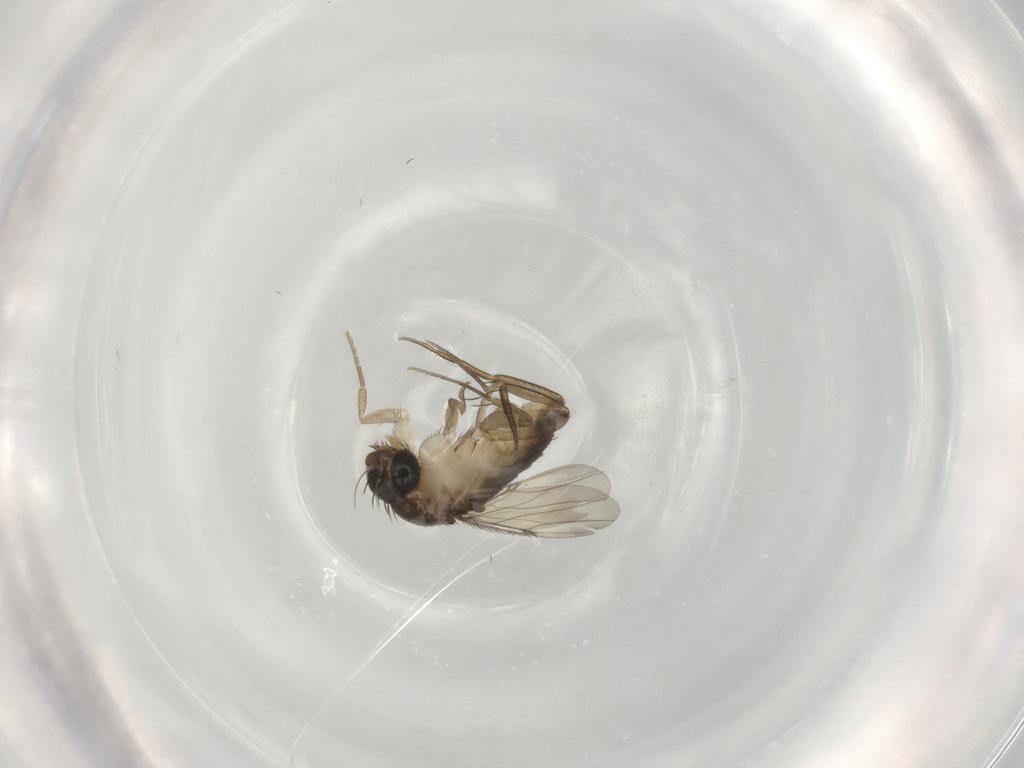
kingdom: Animalia
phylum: Arthropoda
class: Insecta
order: Diptera
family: Phoridae
